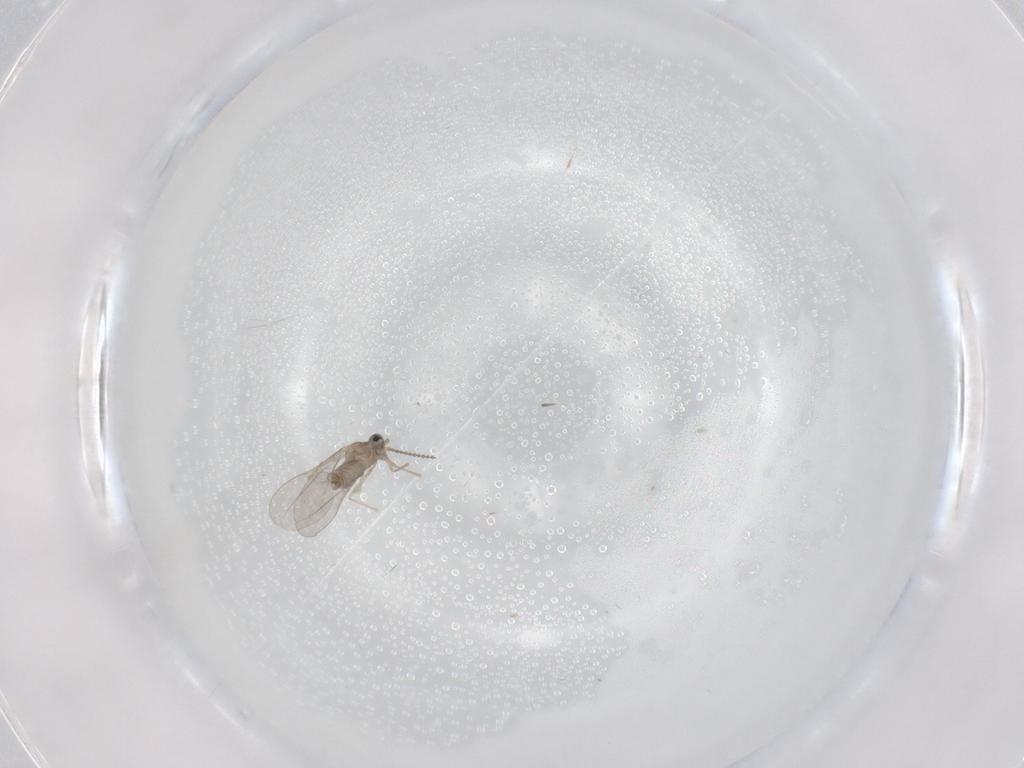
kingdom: Animalia
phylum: Arthropoda
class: Insecta
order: Diptera
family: Cecidomyiidae
